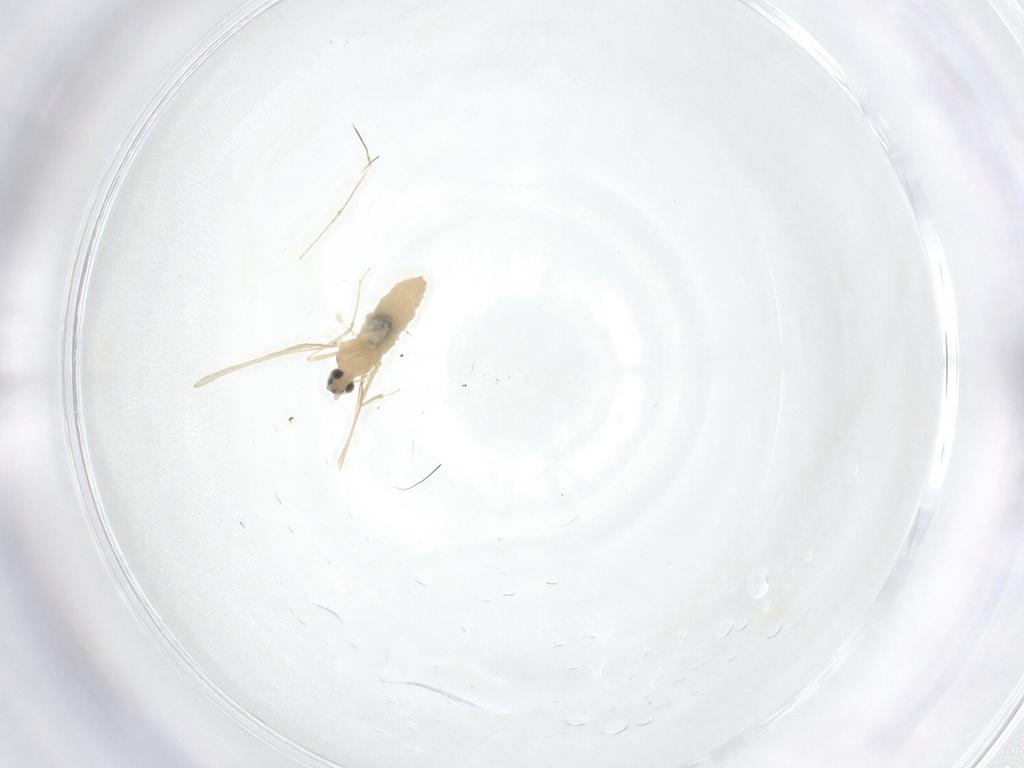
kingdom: Animalia
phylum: Arthropoda
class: Insecta
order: Diptera
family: Cecidomyiidae
